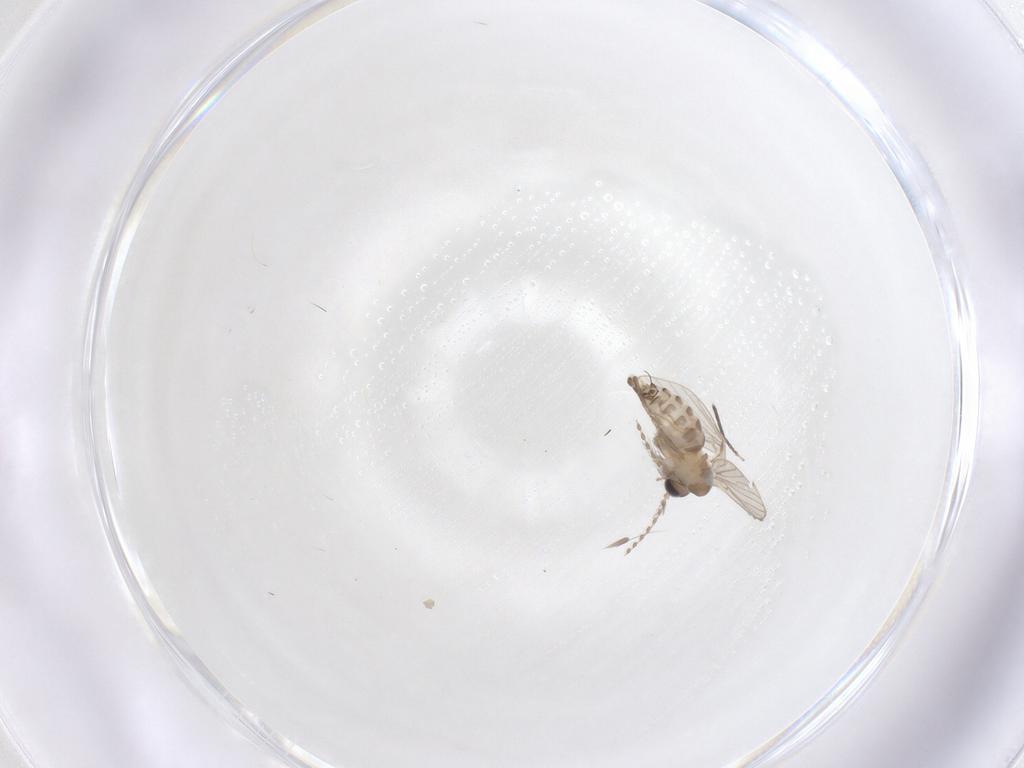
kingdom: Animalia
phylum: Arthropoda
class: Insecta
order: Diptera
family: Psychodidae
